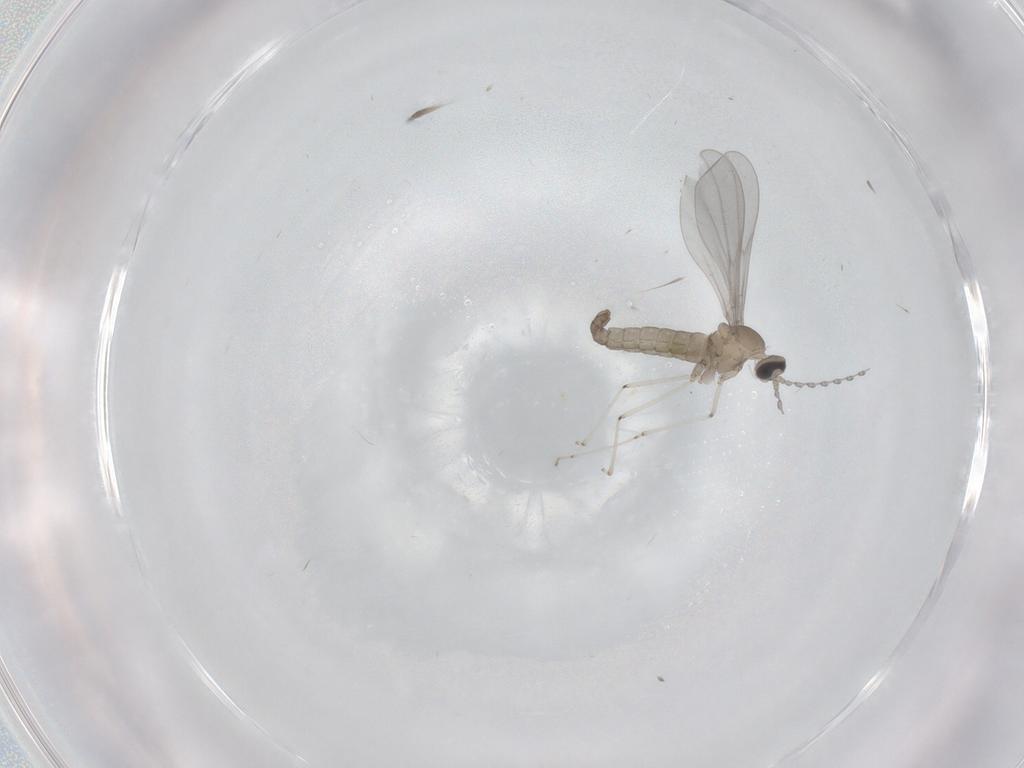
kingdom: Animalia
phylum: Arthropoda
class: Insecta
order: Diptera
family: Cecidomyiidae
